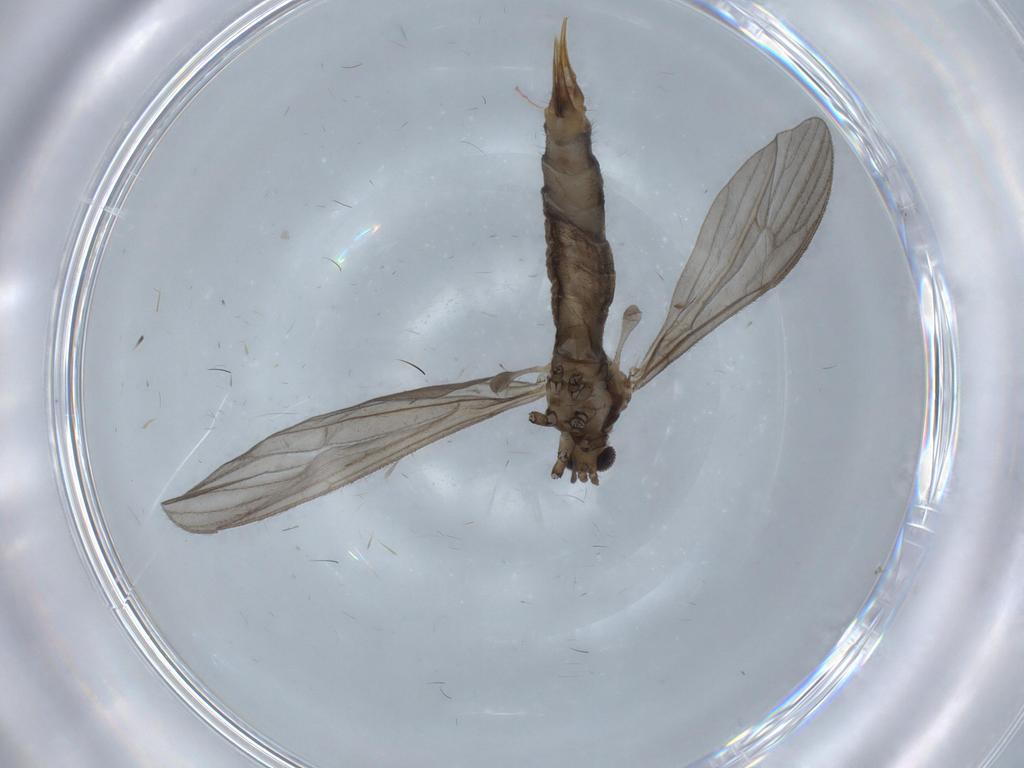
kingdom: Animalia
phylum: Arthropoda
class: Insecta
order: Diptera
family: Limoniidae
